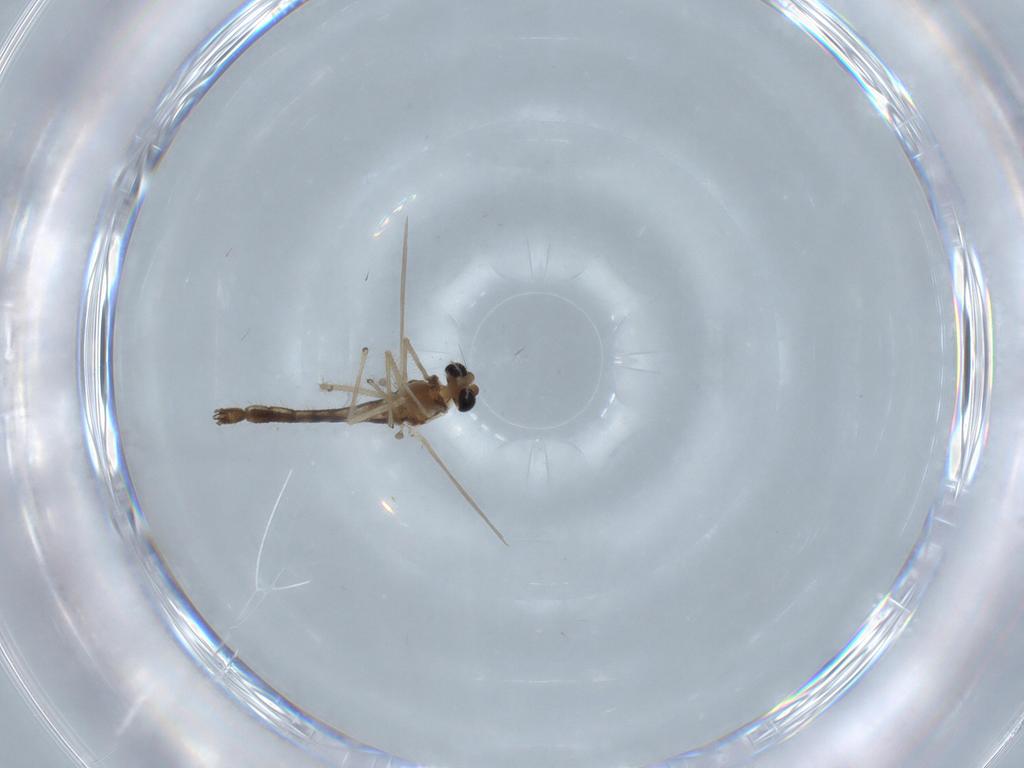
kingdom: Animalia
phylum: Arthropoda
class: Insecta
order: Diptera
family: Chironomidae
